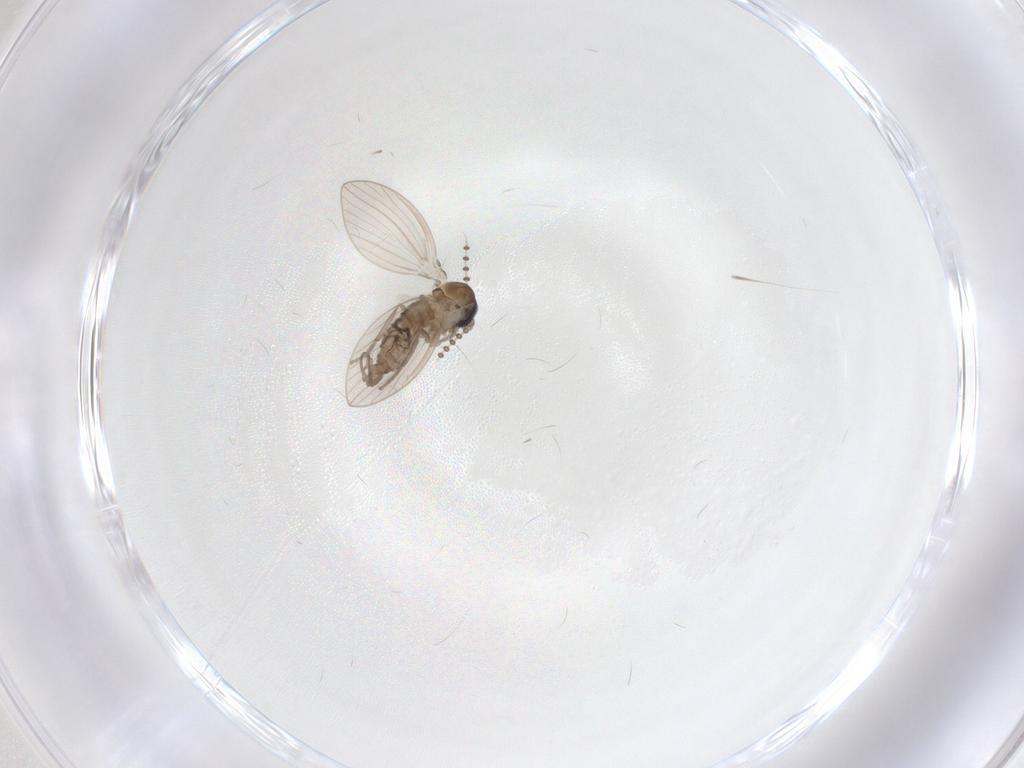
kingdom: Animalia
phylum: Arthropoda
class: Insecta
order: Diptera
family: Psychodidae
